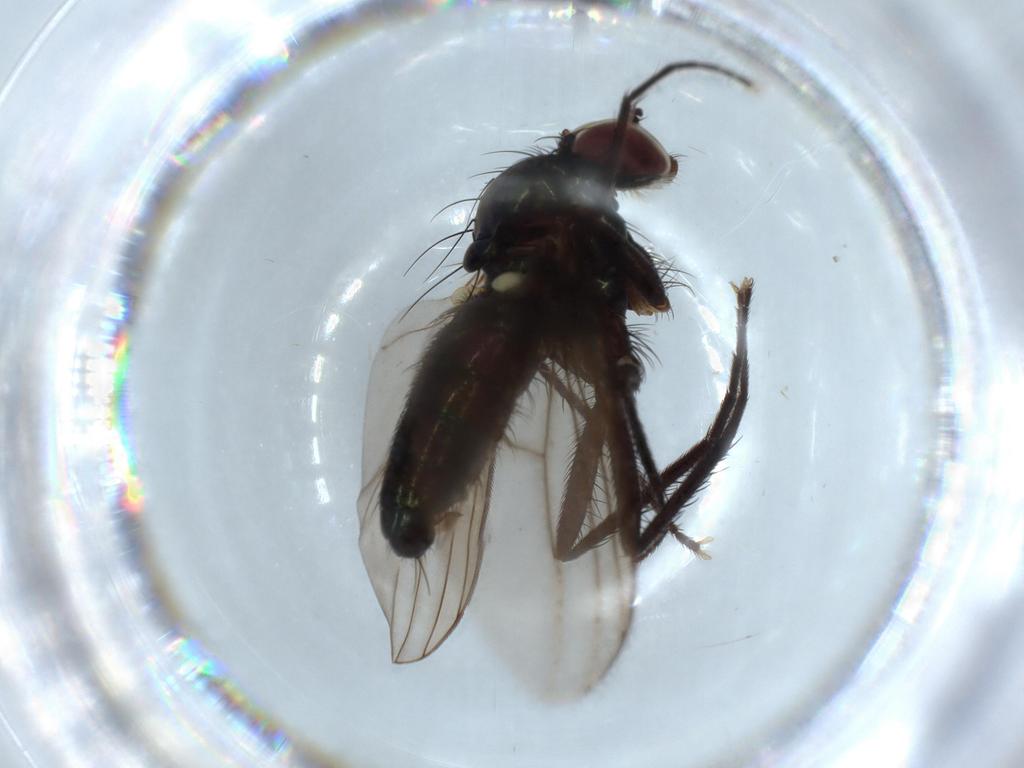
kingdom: Animalia
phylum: Arthropoda
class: Insecta
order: Diptera
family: Dolichopodidae
